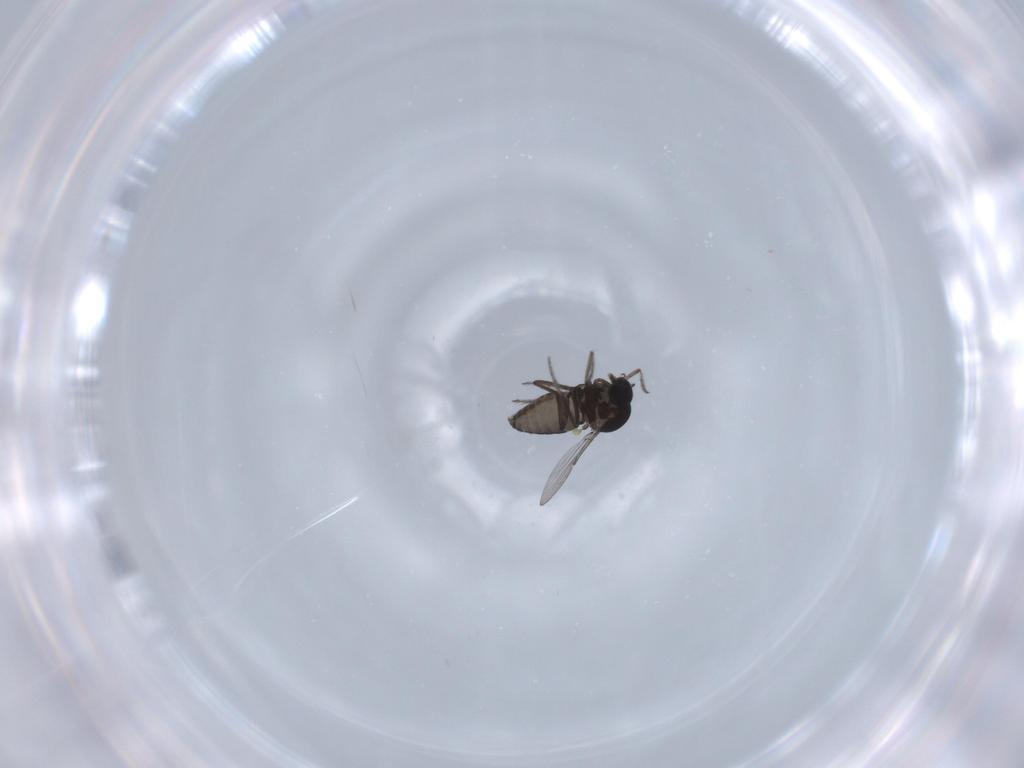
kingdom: Animalia
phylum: Arthropoda
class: Insecta
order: Diptera
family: Ceratopogonidae
